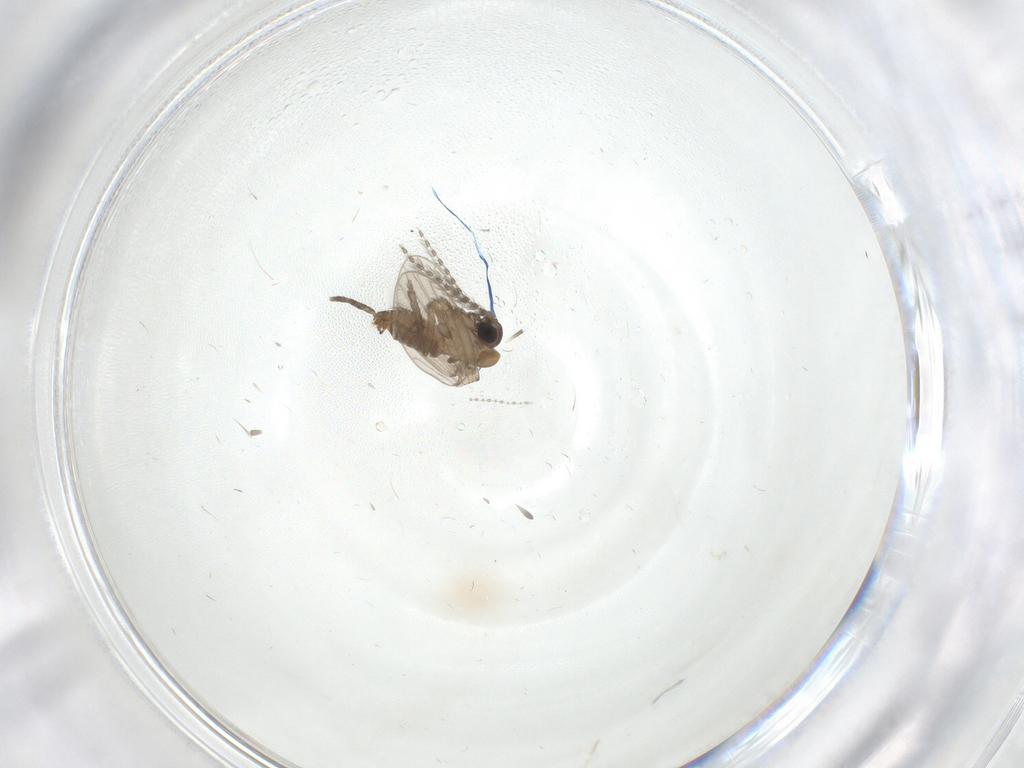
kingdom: Animalia
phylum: Arthropoda
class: Insecta
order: Diptera
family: Cecidomyiidae
